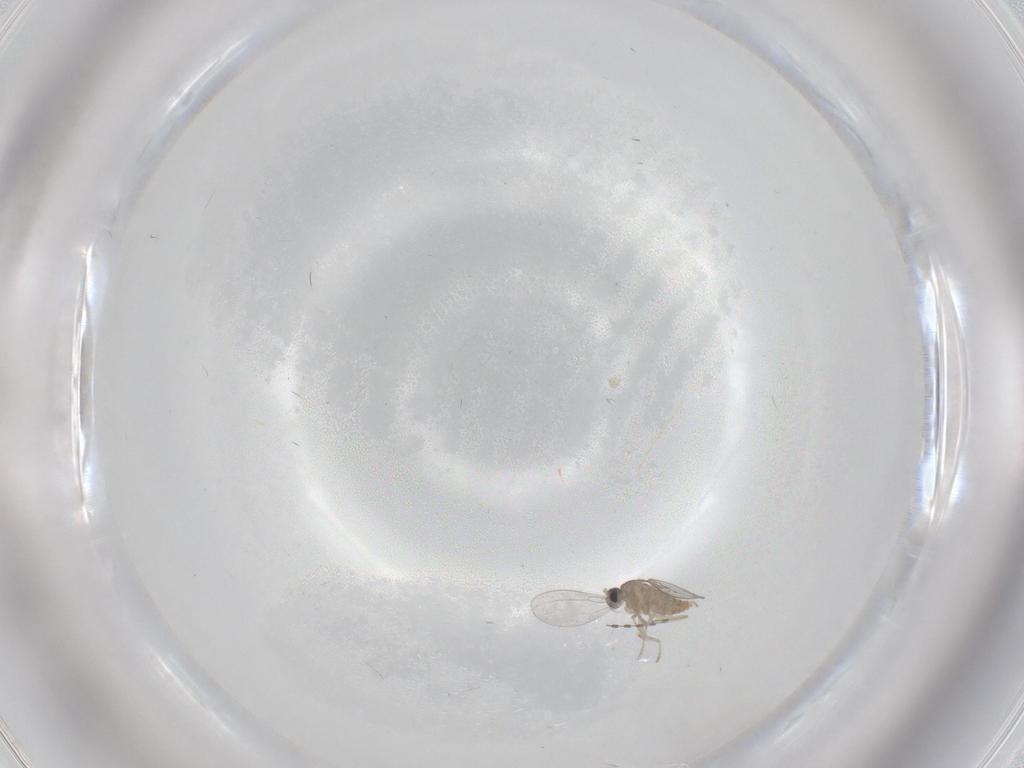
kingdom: Animalia
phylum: Arthropoda
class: Insecta
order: Diptera
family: Cecidomyiidae
